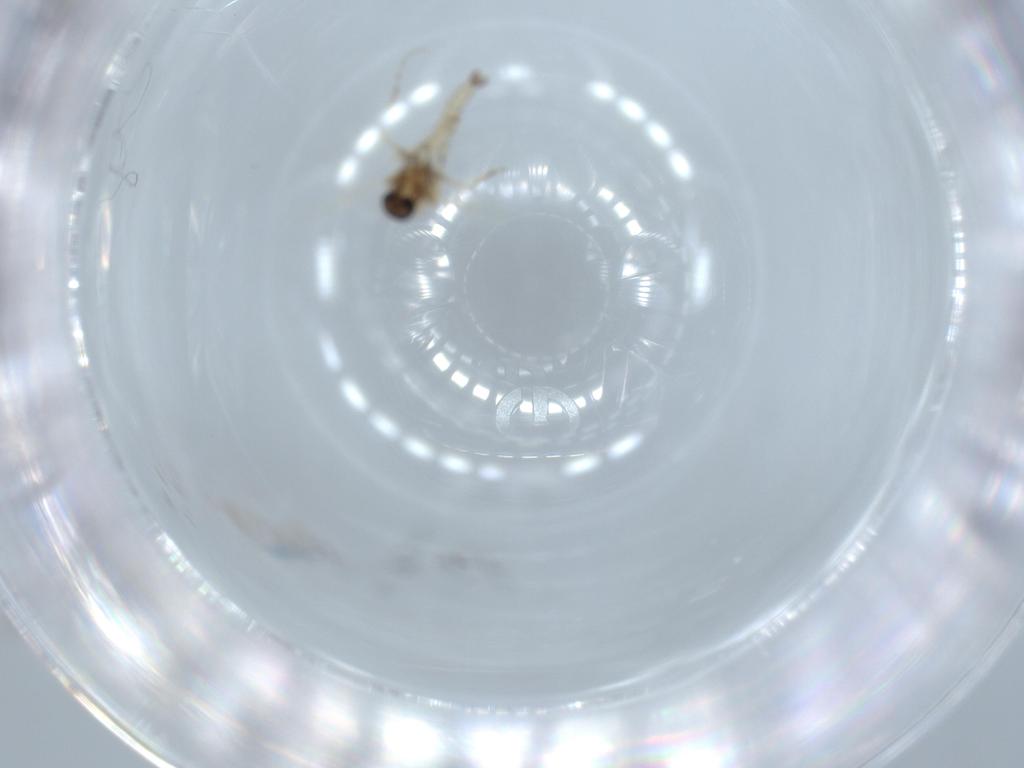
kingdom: Animalia
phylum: Arthropoda
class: Insecta
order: Diptera
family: Ceratopogonidae
